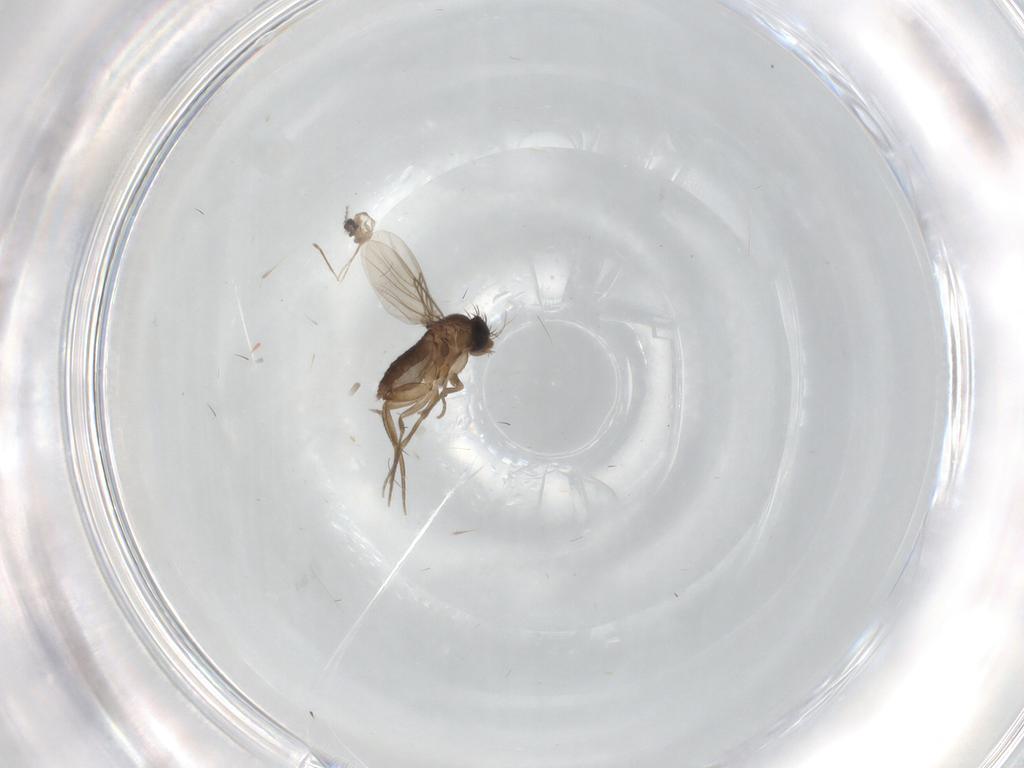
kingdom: Animalia
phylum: Arthropoda
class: Insecta
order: Diptera
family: Phoridae
